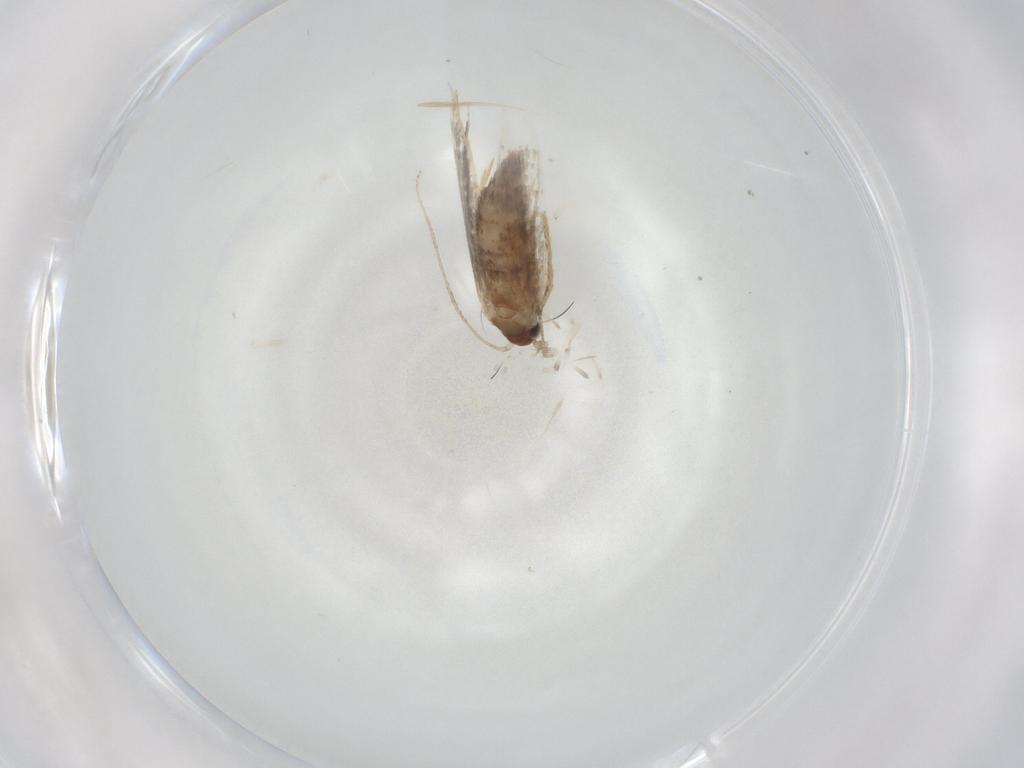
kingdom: Animalia
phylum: Arthropoda
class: Insecta
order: Lepidoptera
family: Tineidae
